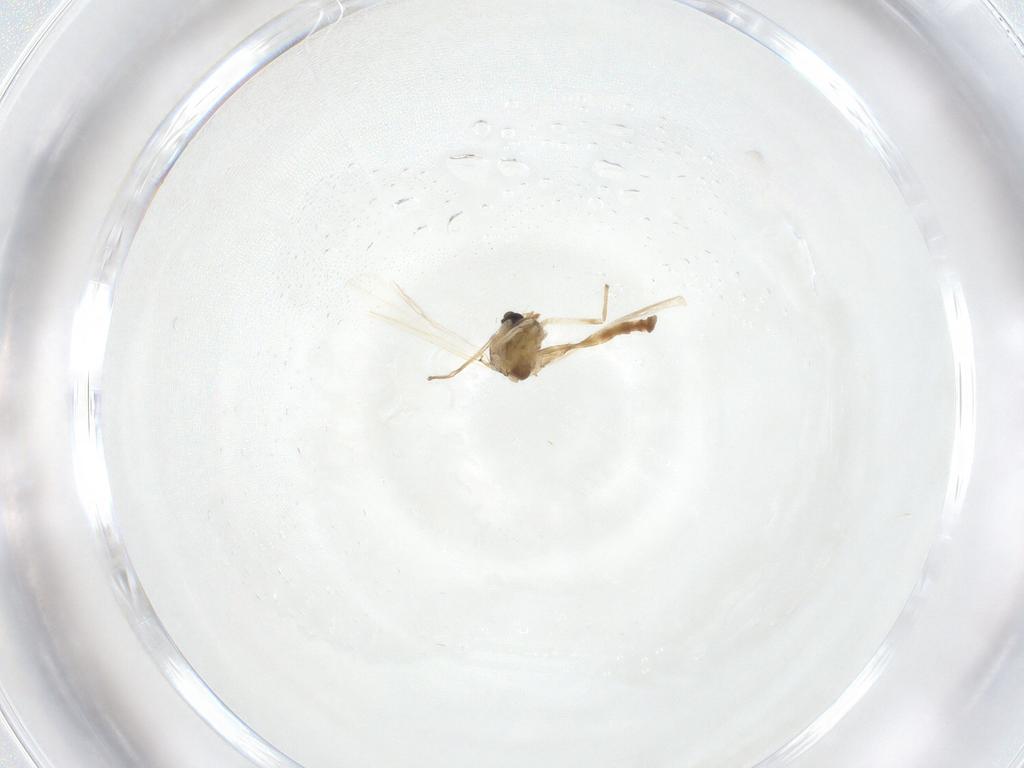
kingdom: Animalia
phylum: Arthropoda
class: Insecta
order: Diptera
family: Chironomidae
